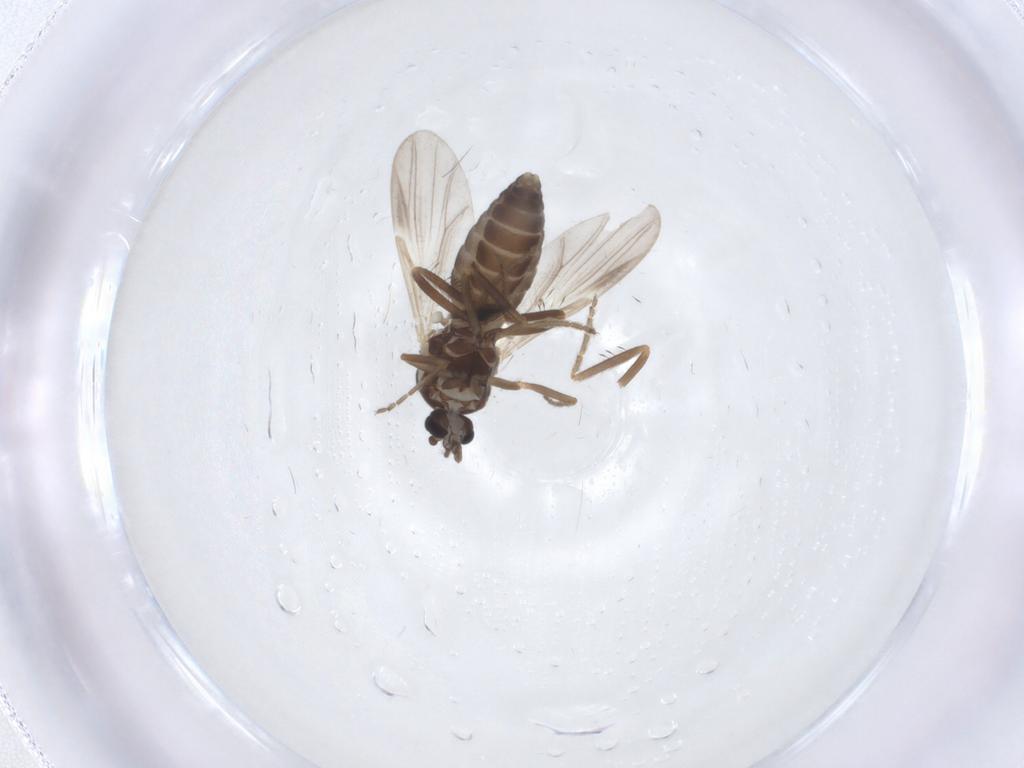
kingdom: Animalia
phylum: Arthropoda
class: Insecta
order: Diptera
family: Ceratopogonidae
